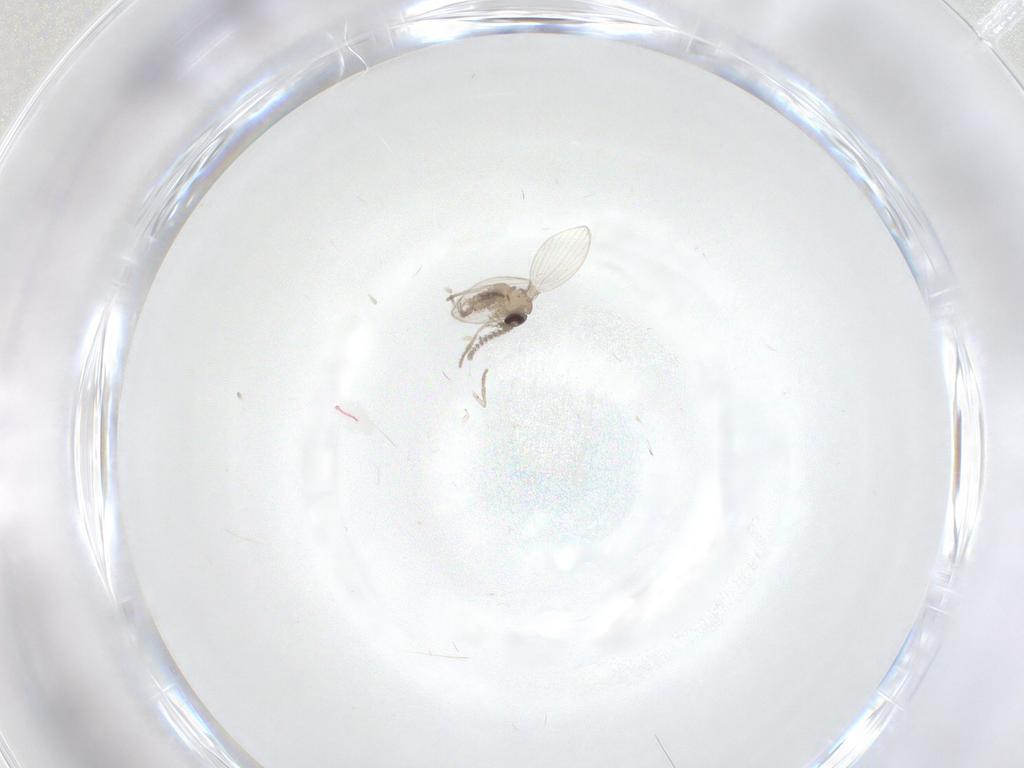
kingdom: Animalia
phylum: Arthropoda
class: Insecta
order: Diptera
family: Psychodidae
